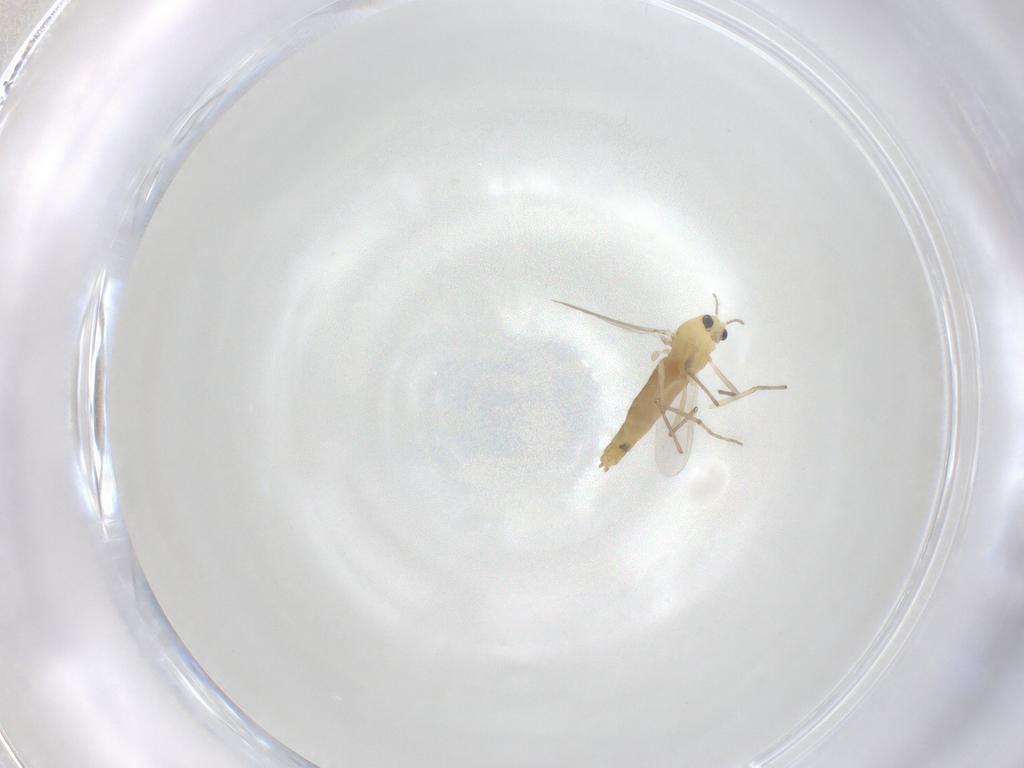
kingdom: Animalia
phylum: Arthropoda
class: Insecta
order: Diptera
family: Chironomidae
